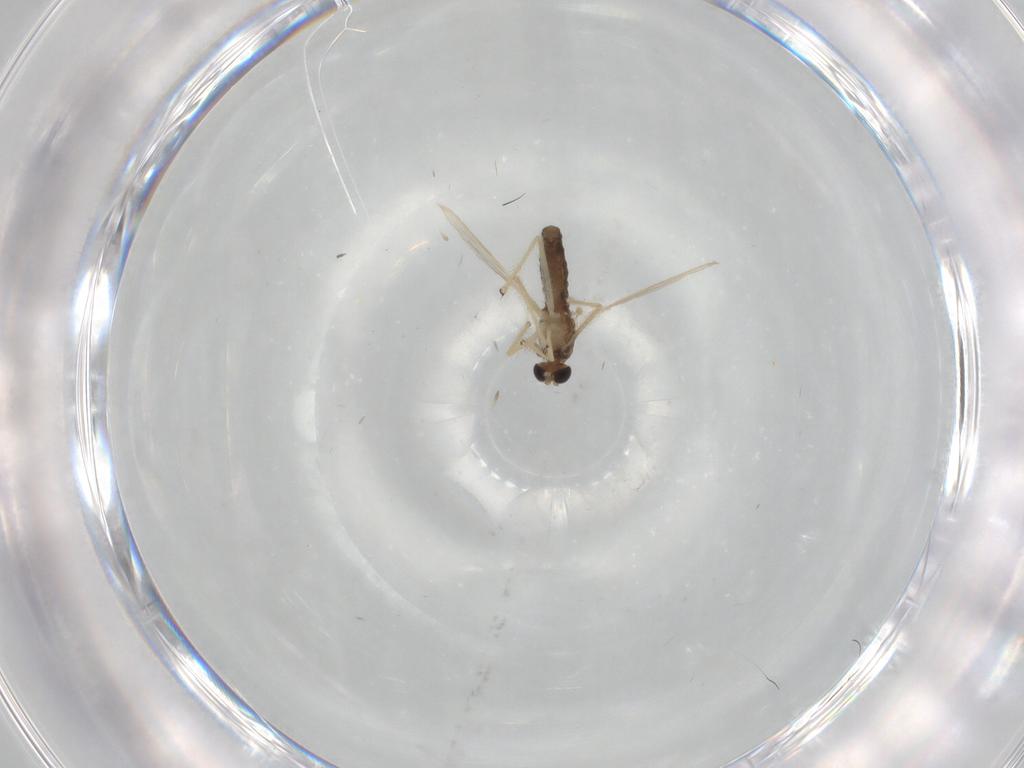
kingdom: Animalia
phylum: Arthropoda
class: Insecta
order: Diptera
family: Chironomidae
